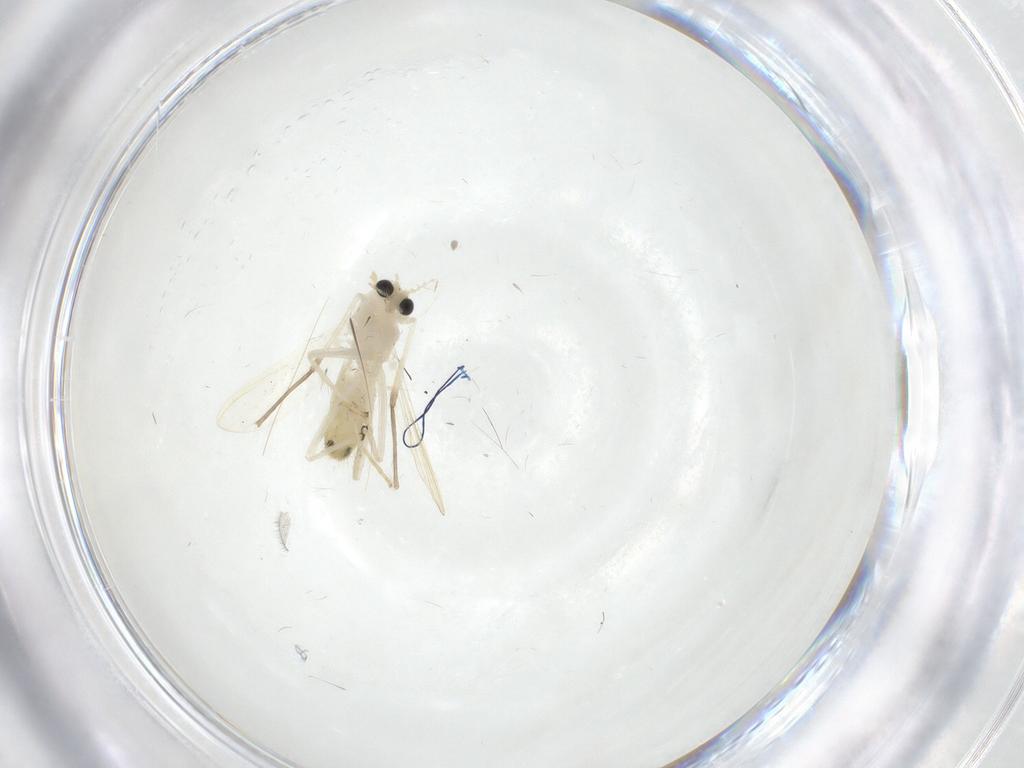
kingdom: Animalia
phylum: Arthropoda
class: Insecta
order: Diptera
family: Chironomidae
